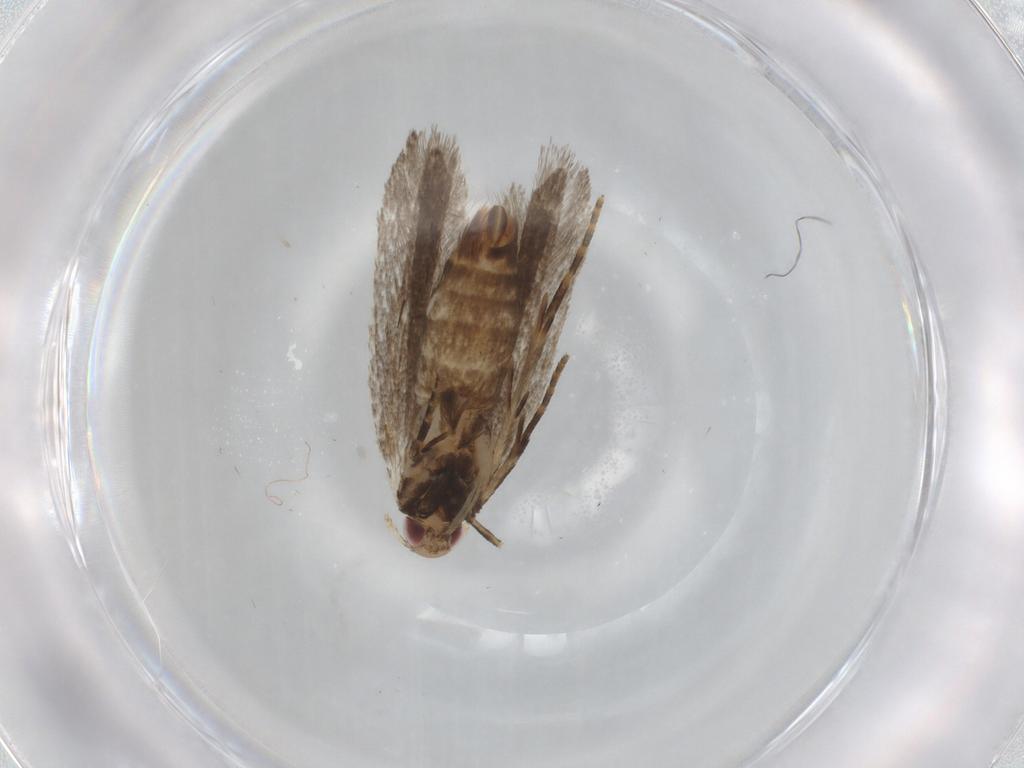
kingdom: Animalia
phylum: Arthropoda
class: Insecta
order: Lepidoptera
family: Gelechiidae
